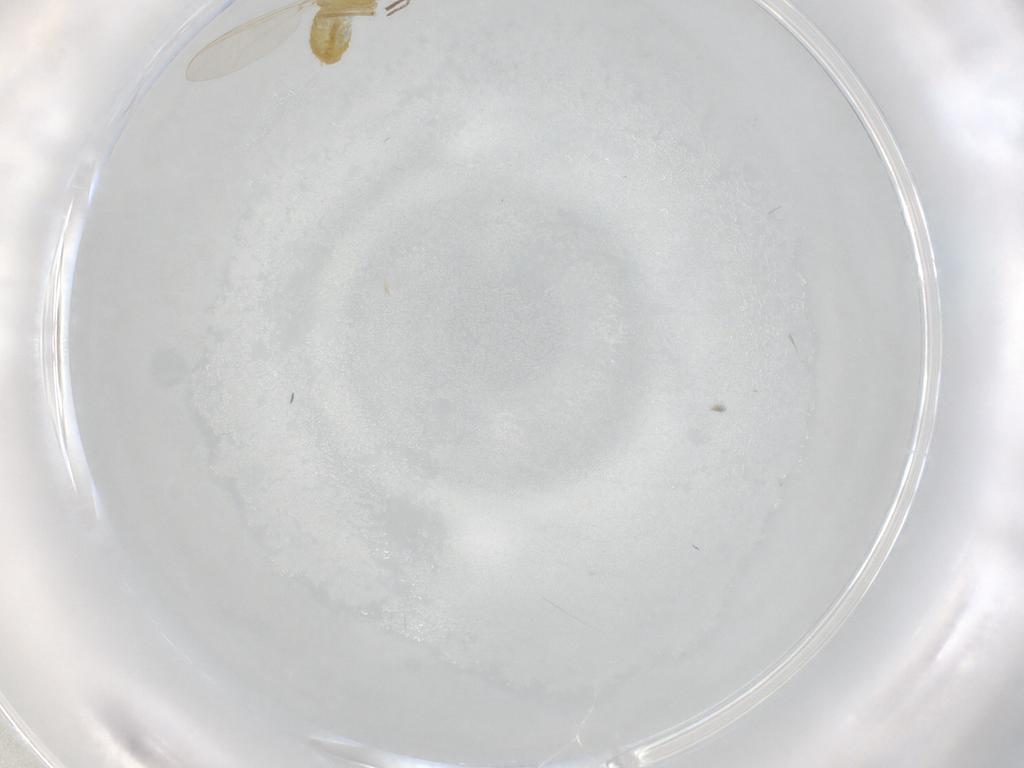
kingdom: Animalia
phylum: Arthropoda
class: Insecta
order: Diptera
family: Chironomidae
